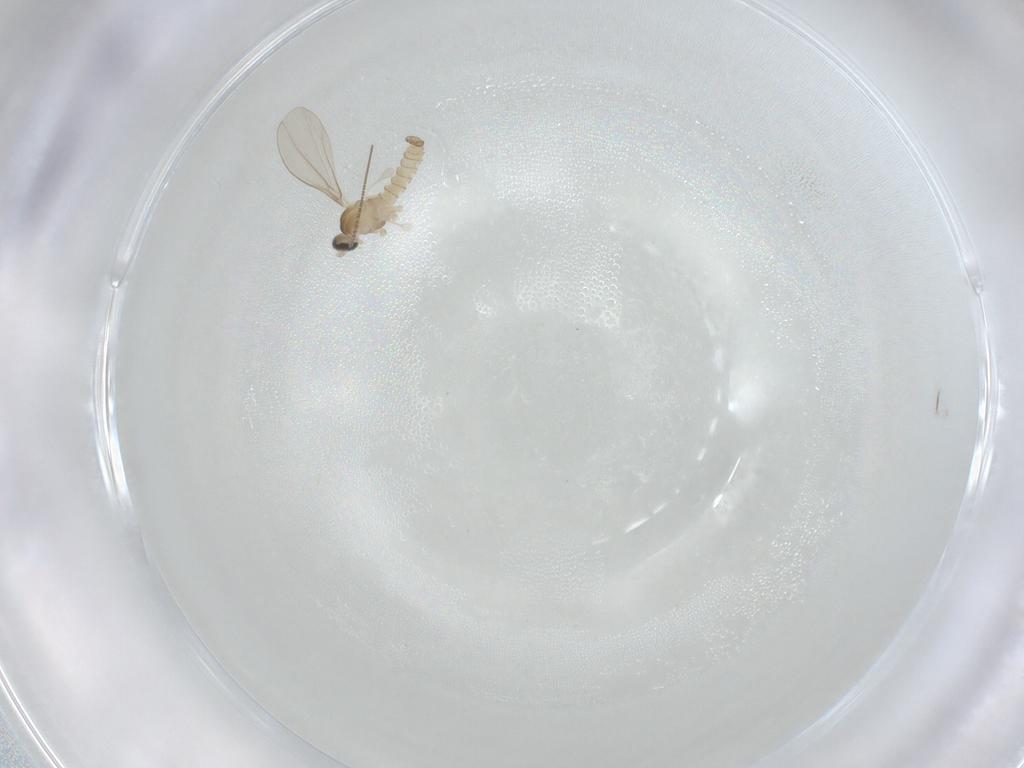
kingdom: Animalia
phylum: Arthropoda
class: Insecta
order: Diptera
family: Cecidomyiidae
